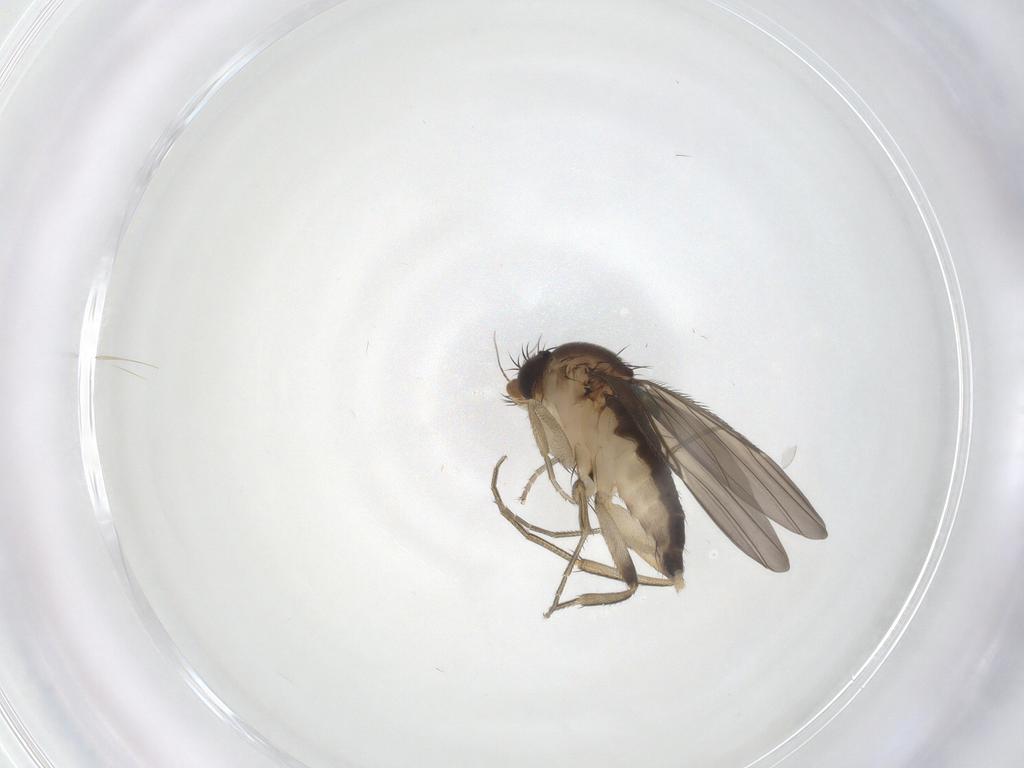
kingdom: Animalia
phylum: Arthropoda
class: Insecta
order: Diptera
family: Phoridae
